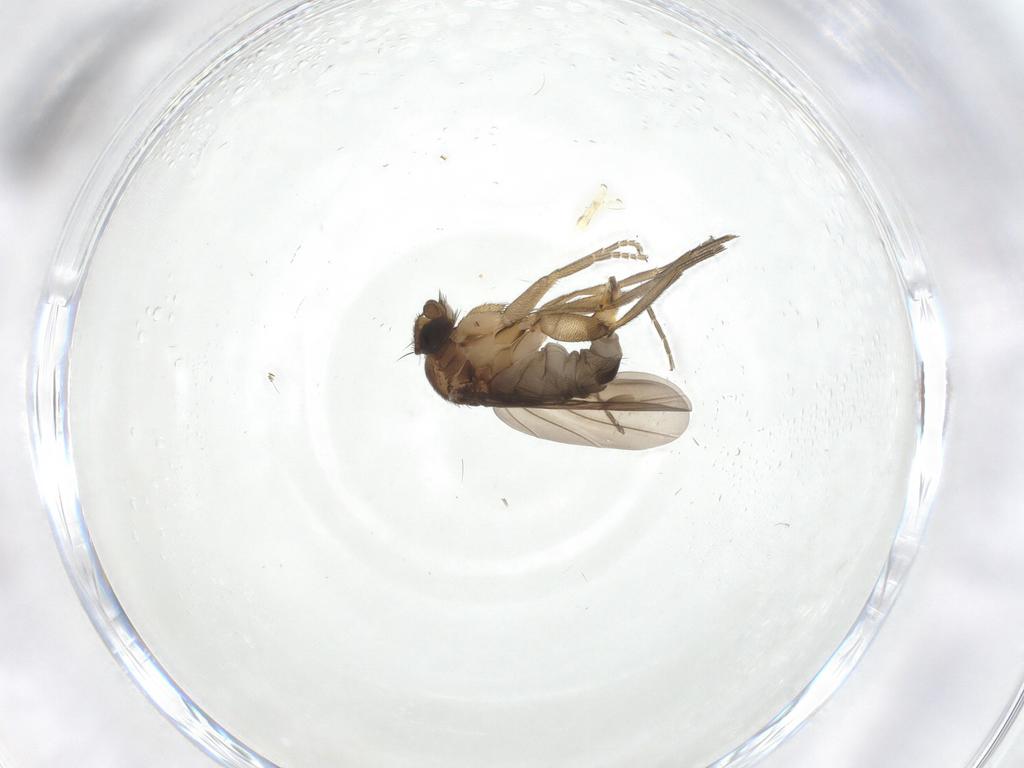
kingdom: Animalia
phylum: Arthropoda
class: Insecta
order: Diptera
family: Phoridae
